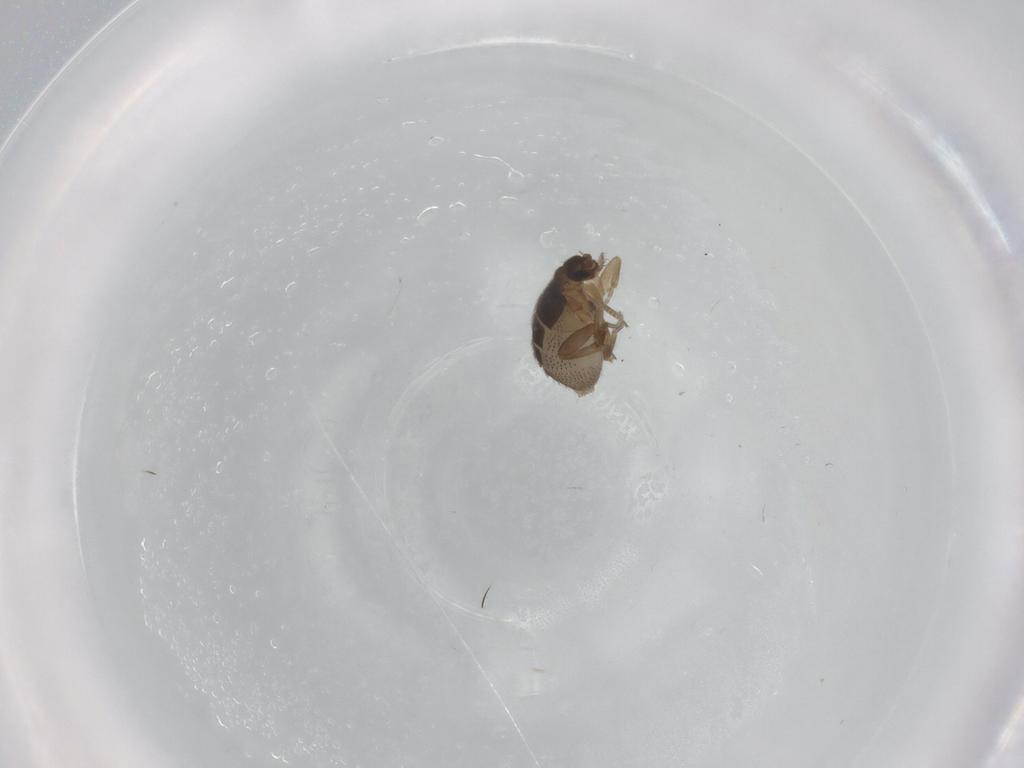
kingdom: Animalia
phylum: Arthropoda
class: Insecta
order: Diptera
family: Phoridae
